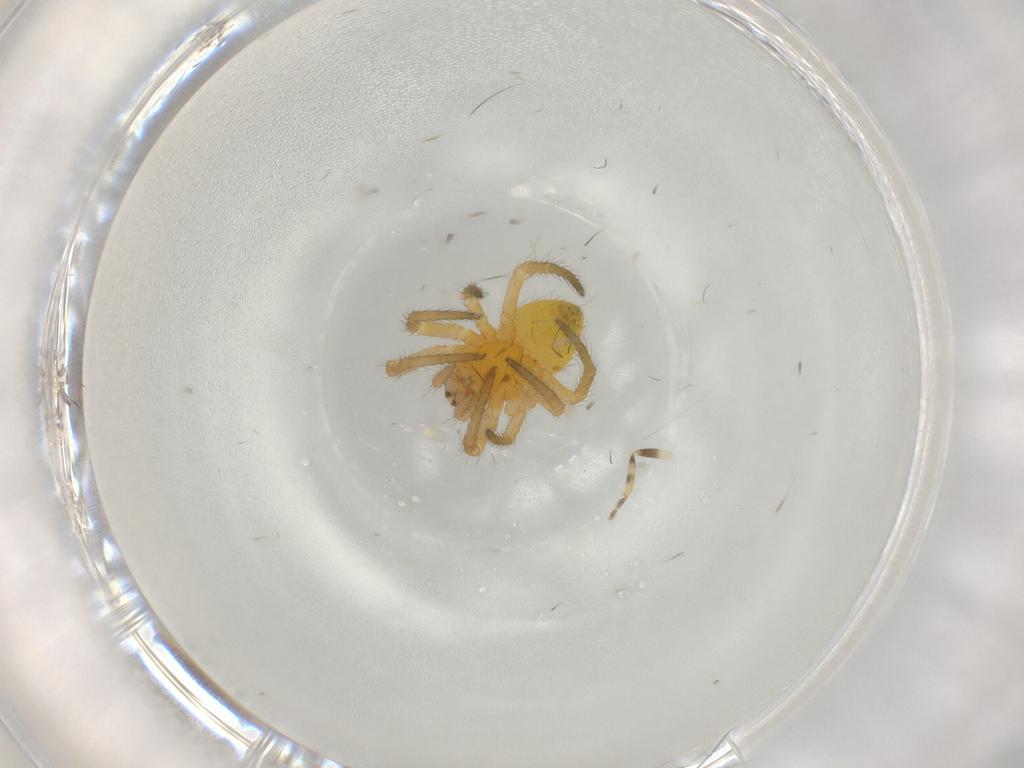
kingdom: Animalia
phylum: Arthropoda
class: Arachnida
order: Araneae
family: Araneidae
